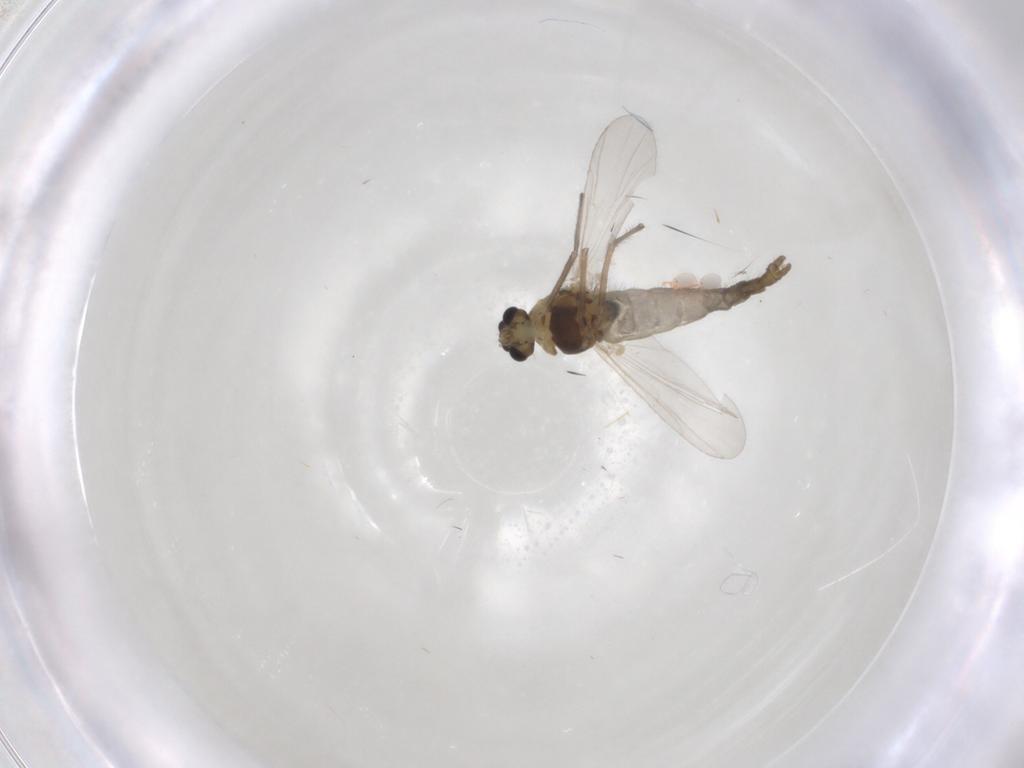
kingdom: Animalia
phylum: Arthropoda
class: Insecta
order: Diptera
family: Chironomidae
